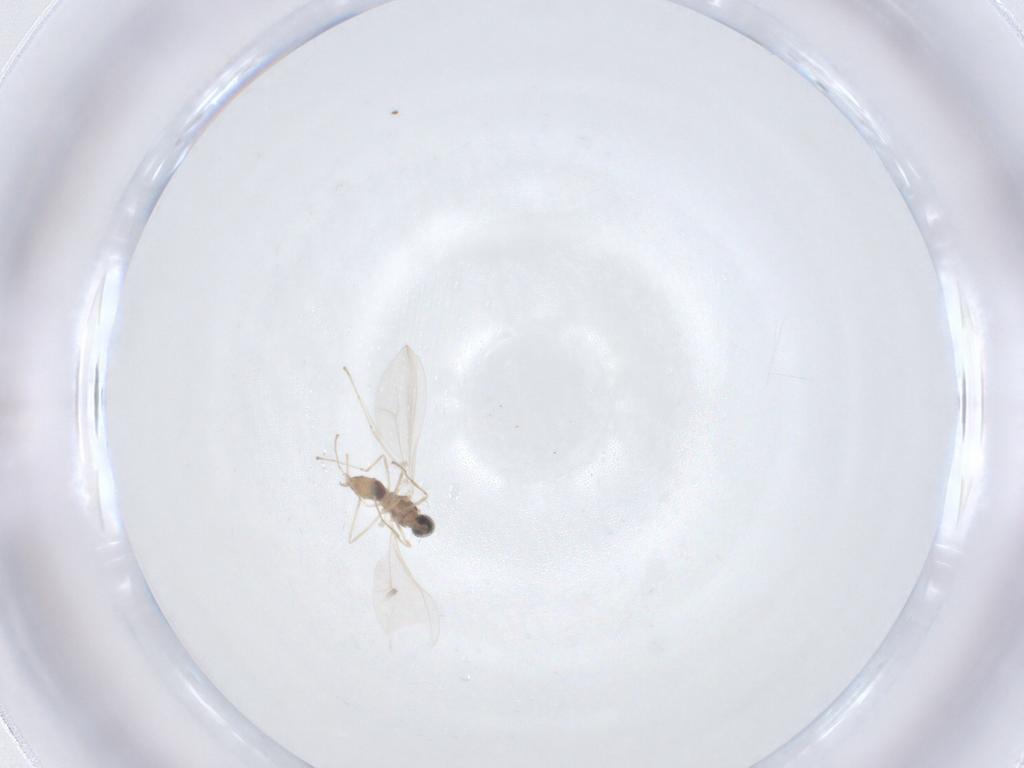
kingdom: Animalia
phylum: Arthropoda
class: Insecta
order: Diptera
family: Cecidomyiidae
